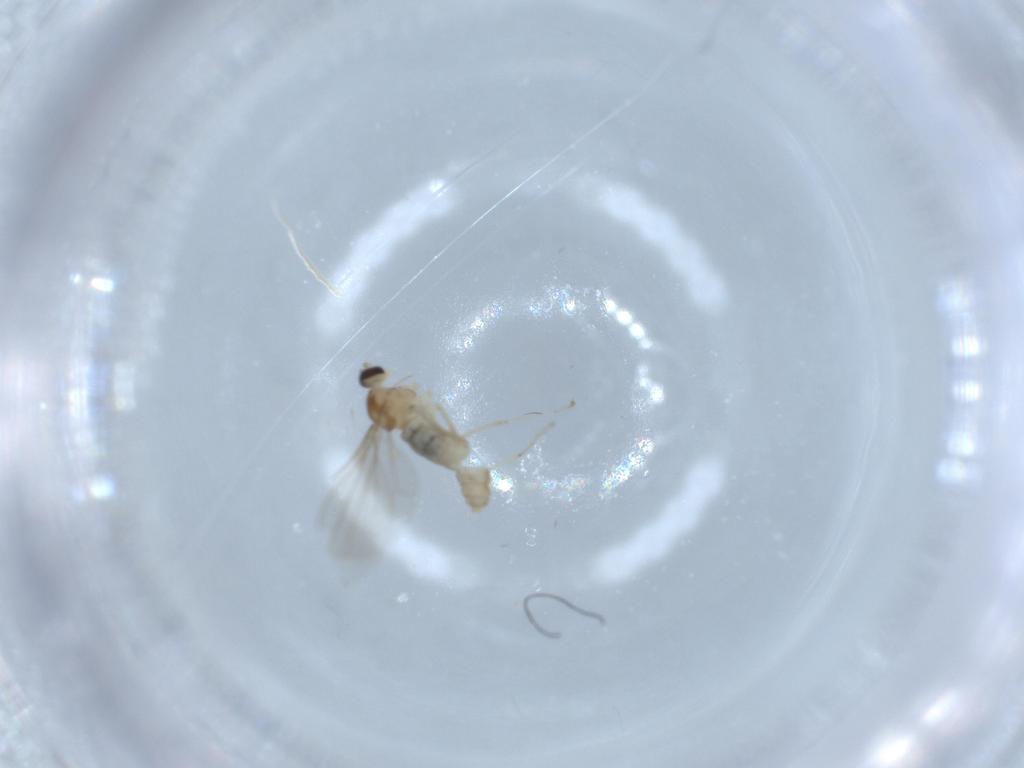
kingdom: Animalia
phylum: Arthropoda
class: Insecta
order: Diptera
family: Cecidomyiidae
